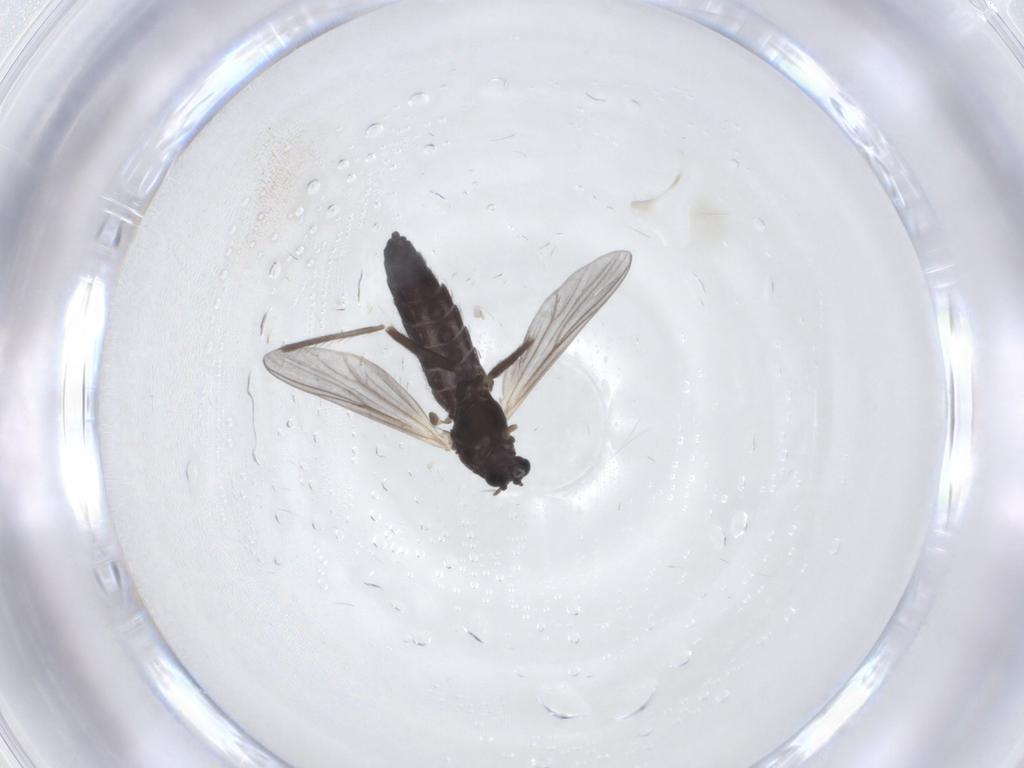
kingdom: Animalia
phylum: Arthropoda
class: Insecta
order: Diptera
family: Chironomidae
